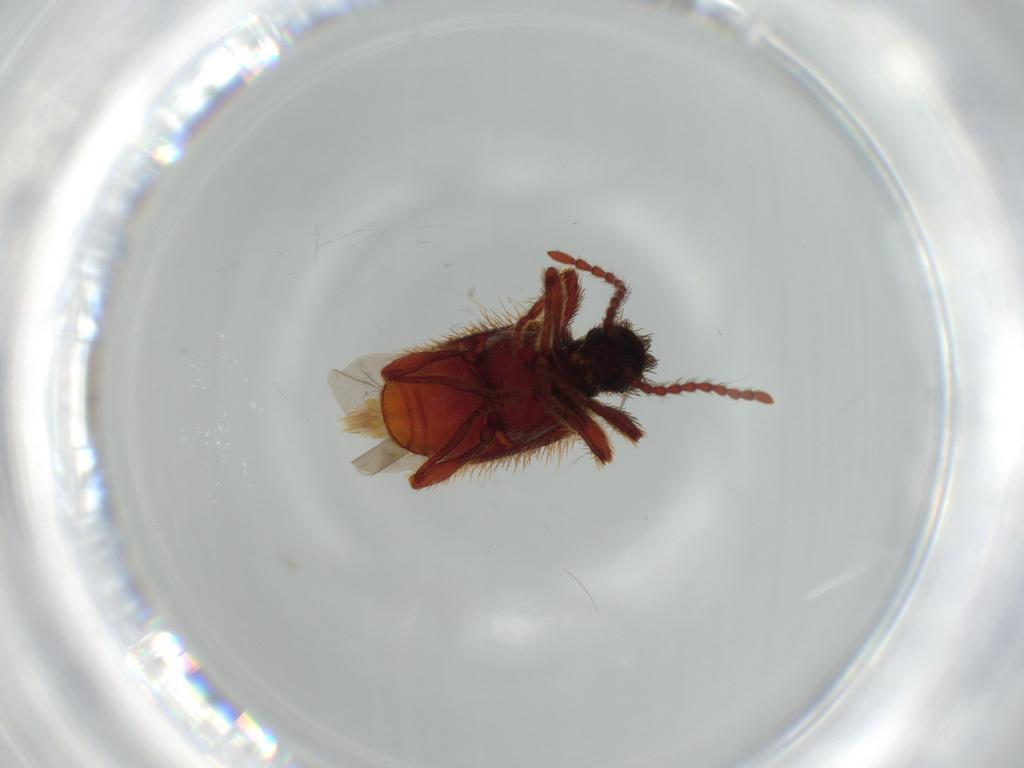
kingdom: Animalia
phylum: Arthropoda
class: Insecta
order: Coleoptera
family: Ptinidae
